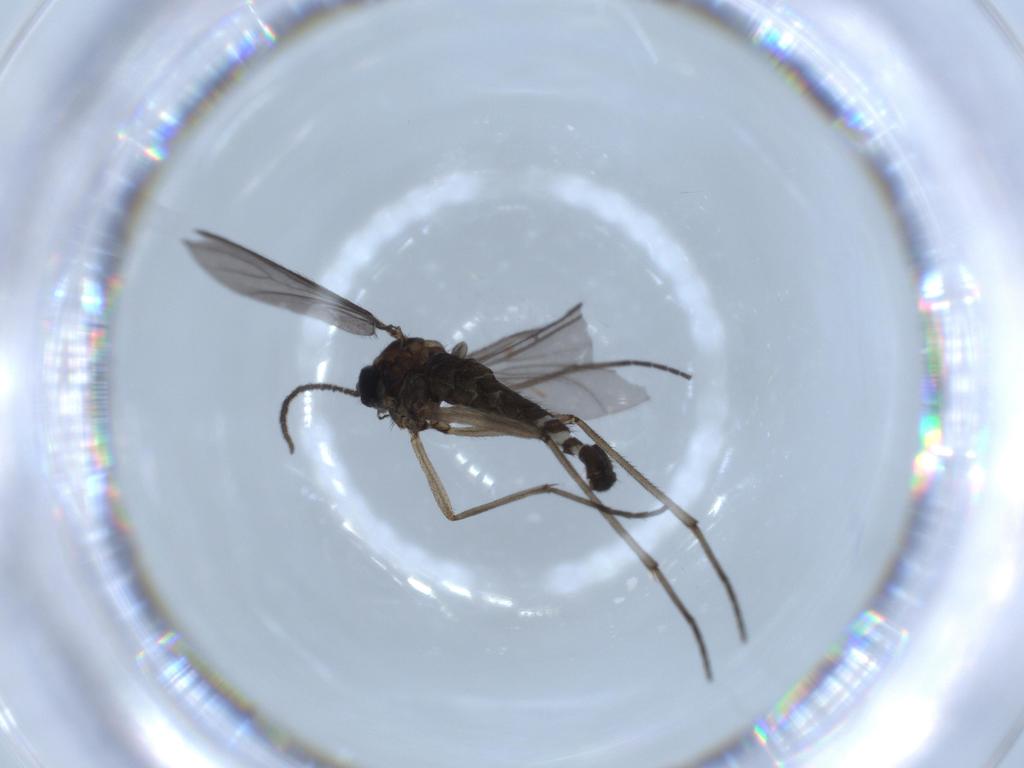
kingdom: Animalia
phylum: Arthropoda
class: Insecta
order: Diptera
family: Sciaridae
